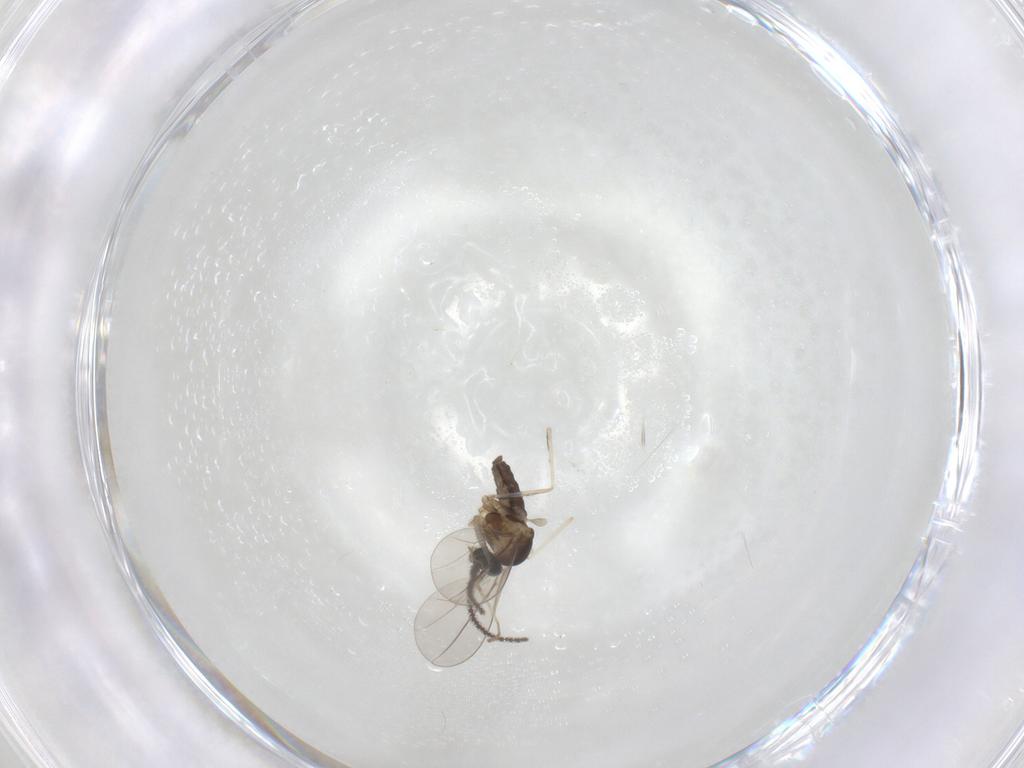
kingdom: Animalia
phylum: Arthropoda
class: Insecta
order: Diptera
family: Cecidomyiidae
